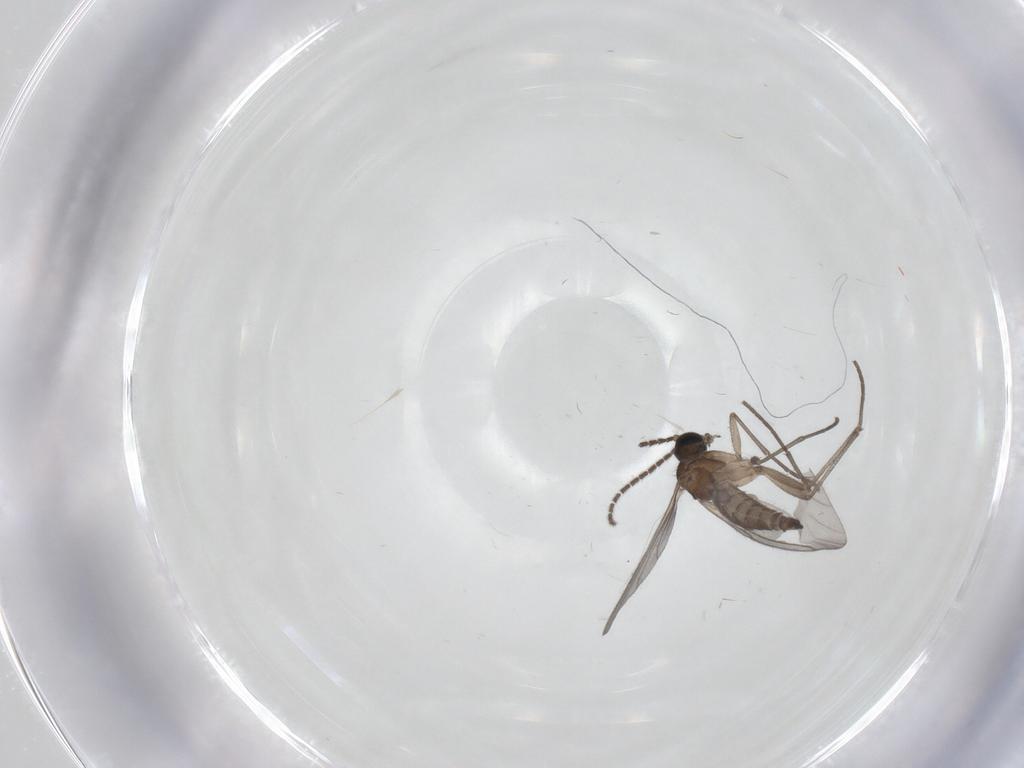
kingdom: Animalia
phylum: Arthropoda
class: Insecta
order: Diptera
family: Sciaridae
